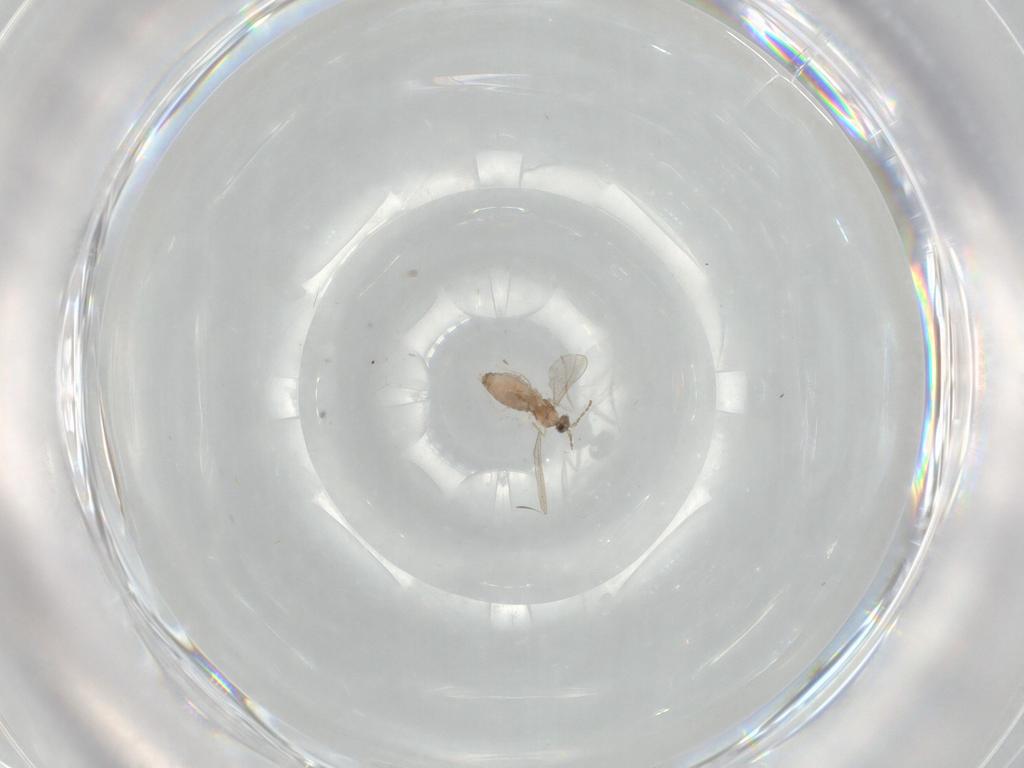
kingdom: Animalia
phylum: Arthropoda
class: Insecta
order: Diptera
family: Cecidomyiidae
